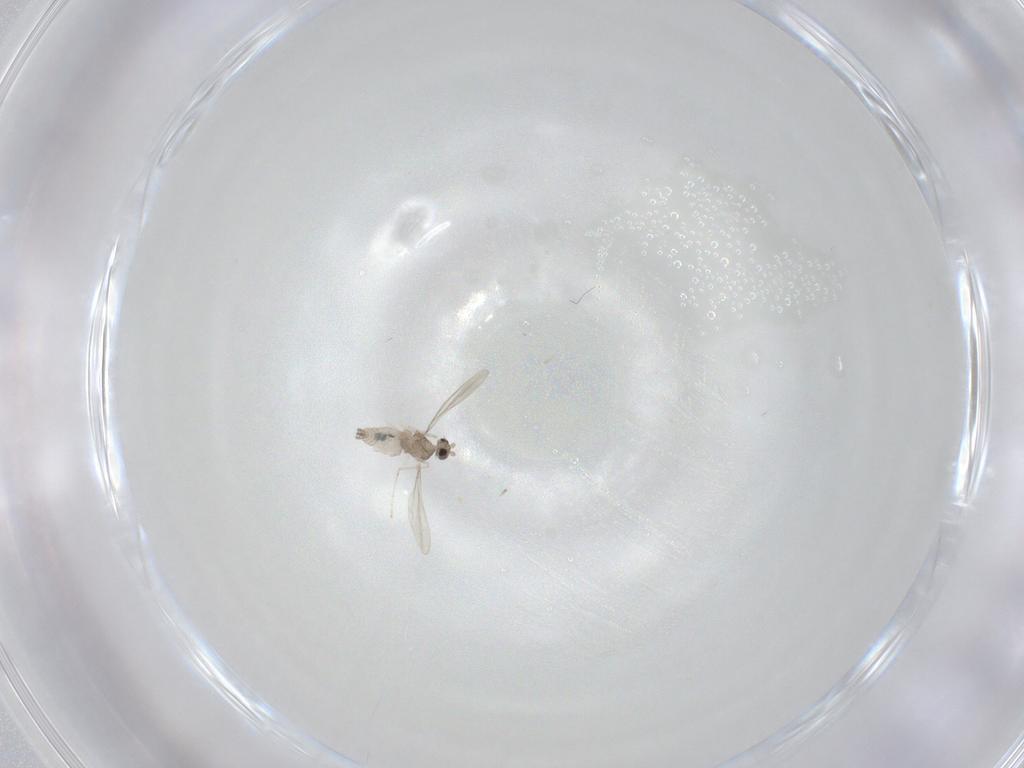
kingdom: Animalia
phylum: Arthropoda
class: Insecta
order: Diptera
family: Cecidomyiidae
